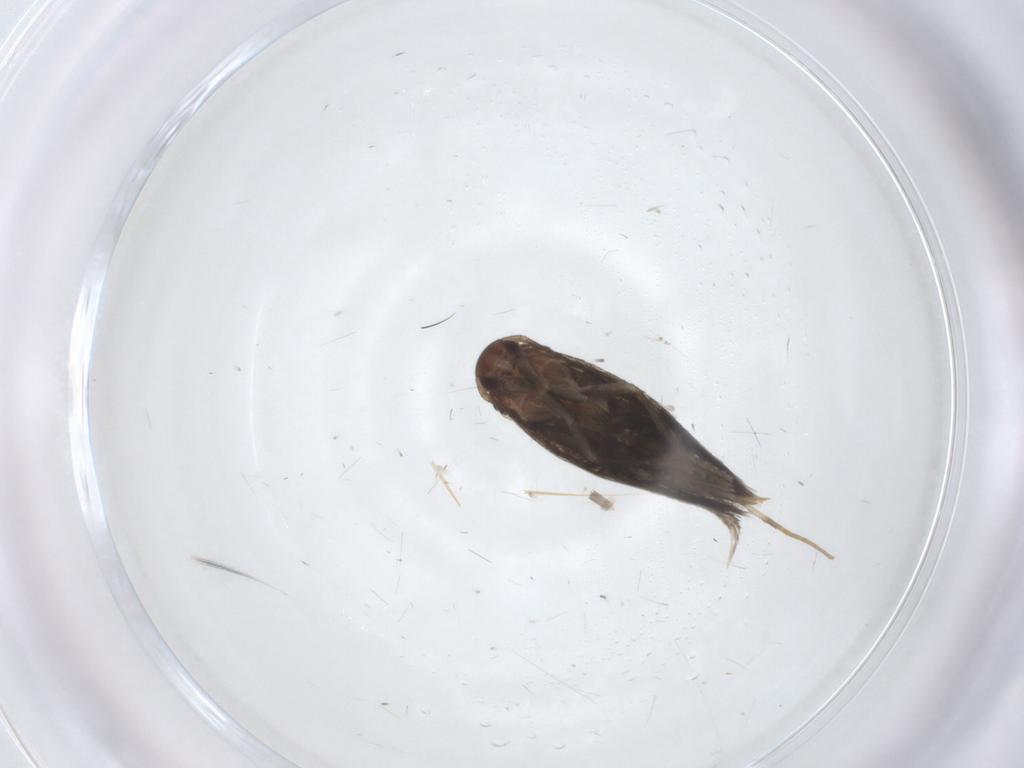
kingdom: Animalia
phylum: Arthropoda
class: Insecta
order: Lepidoptera
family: Elachistidae
